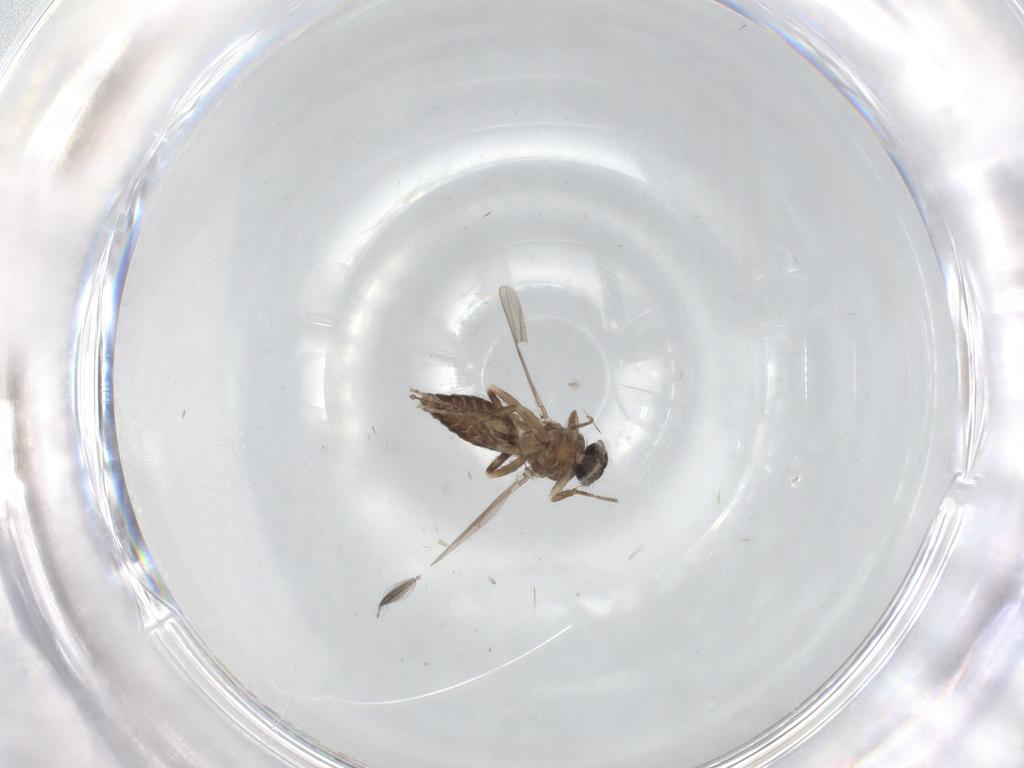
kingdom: Animalia
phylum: Arthropoda
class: Insecta
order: Diptera
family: Ceratopogonidae
